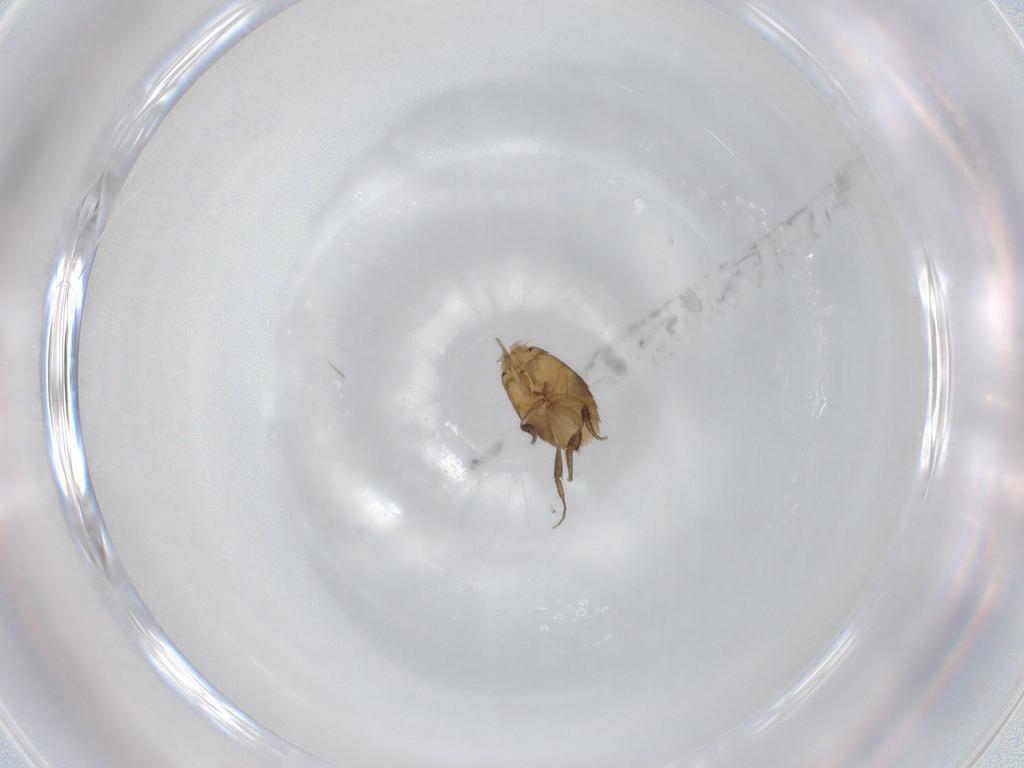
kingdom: Animalia
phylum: Arthropoda
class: Insecta
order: Diptera
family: Phoridae
